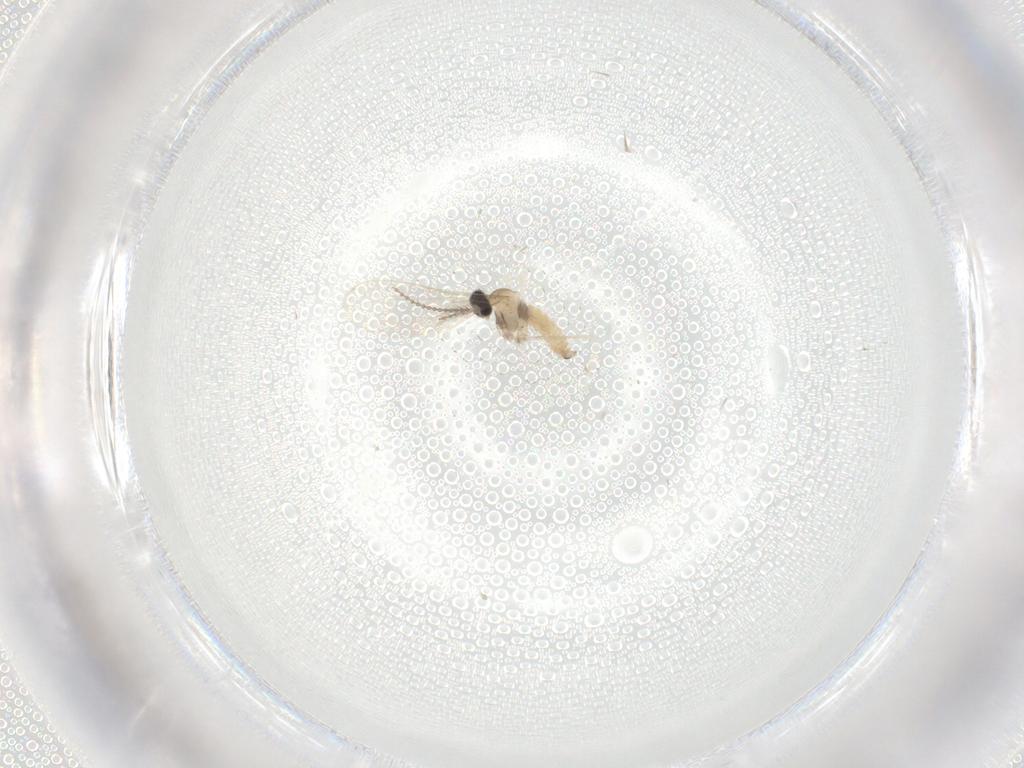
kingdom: Animalia
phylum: Arthropoda
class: Insecta
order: Diptera
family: Cecidomyiidae
